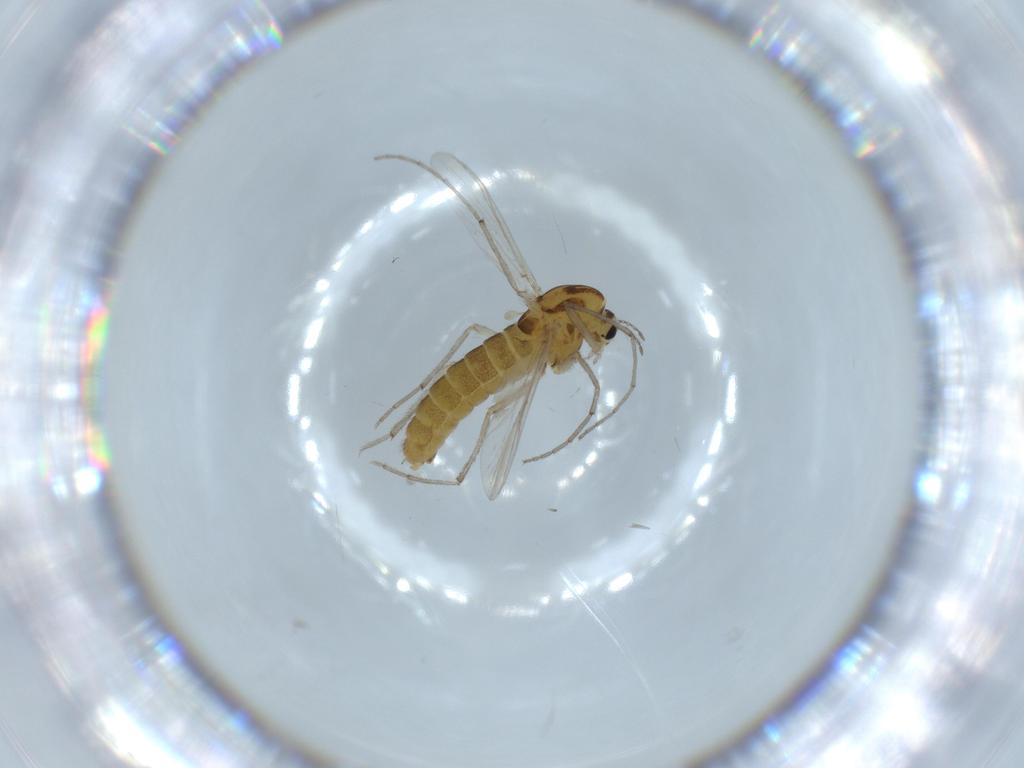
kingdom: Animalia
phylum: Arthropoda
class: Insecta
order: Diptera
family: Chironomidae
